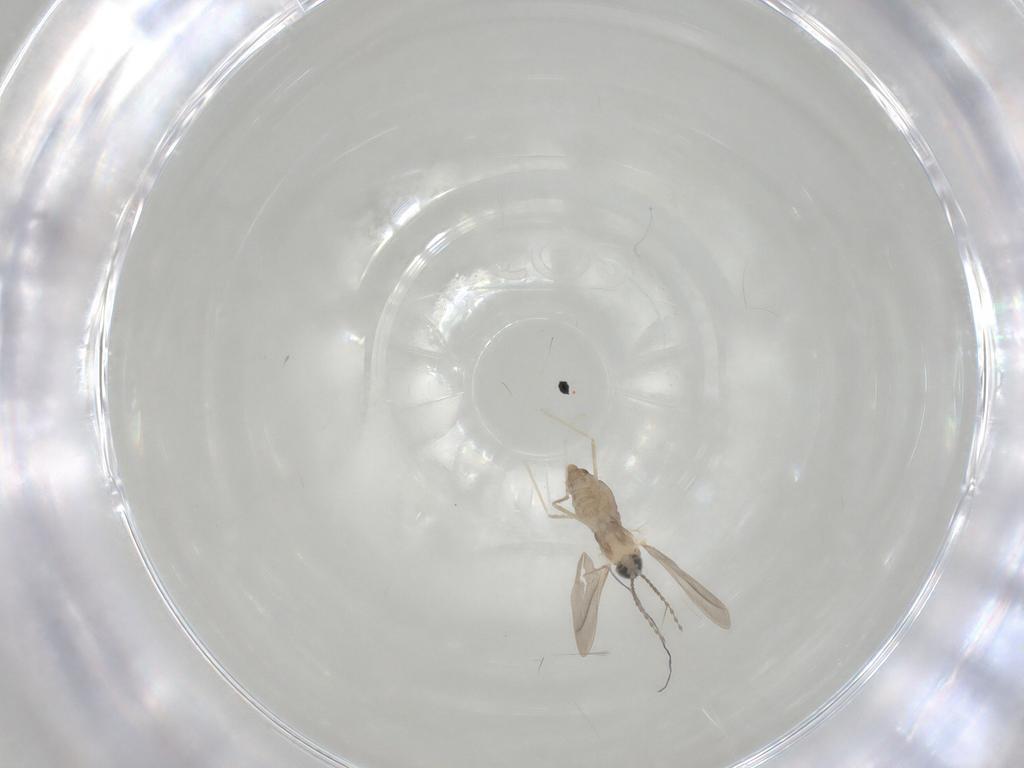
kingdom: Animalia
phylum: Arthropoda
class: Insecta
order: Diptera
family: Cecidomyiidae
